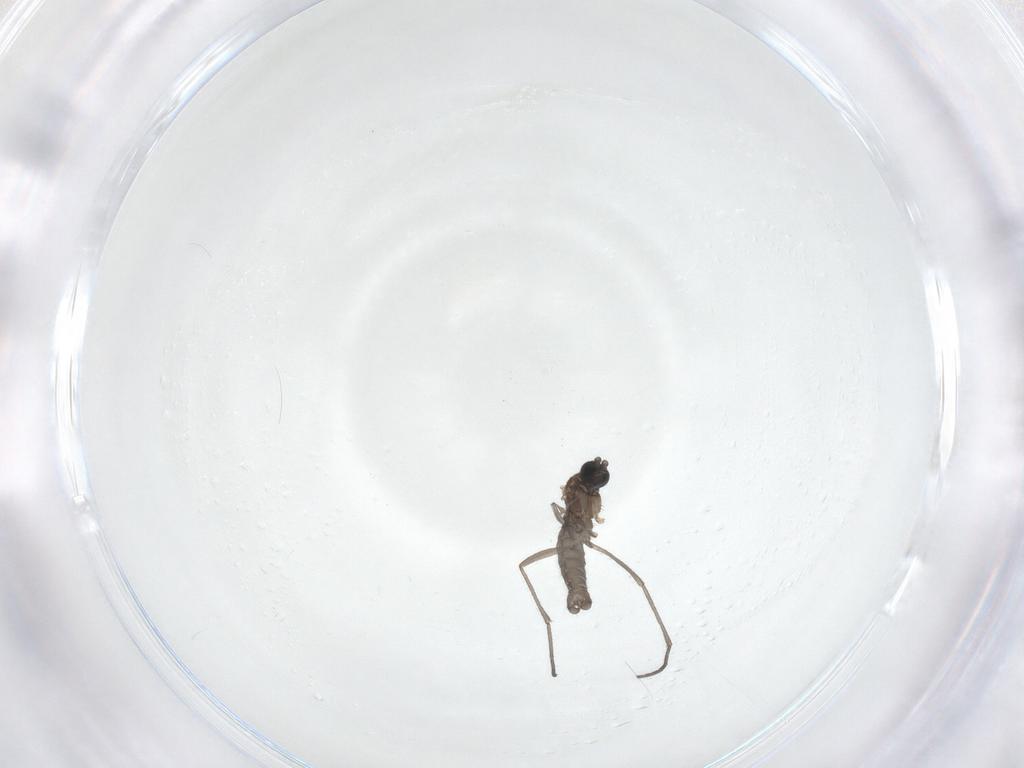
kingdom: Animalia
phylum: Arthropoda
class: Insecta
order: Diptera
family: Sciaridae
